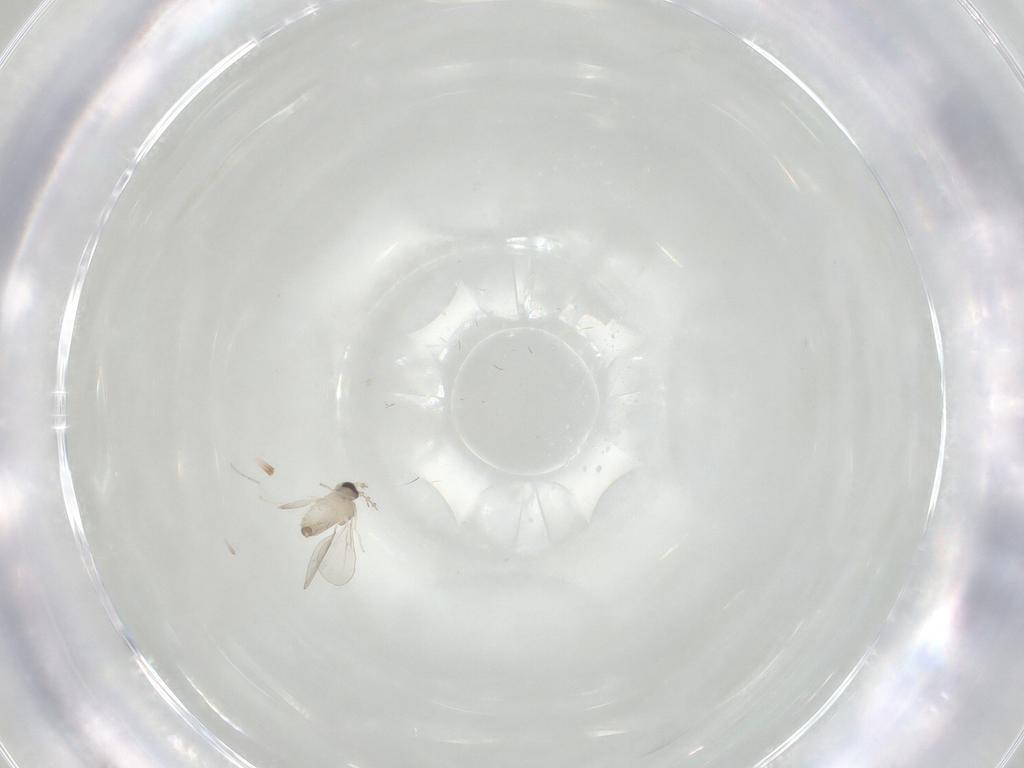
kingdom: Animalia
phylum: Arthropoda
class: Insecta
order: Diptera
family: Cecidomyiidae
